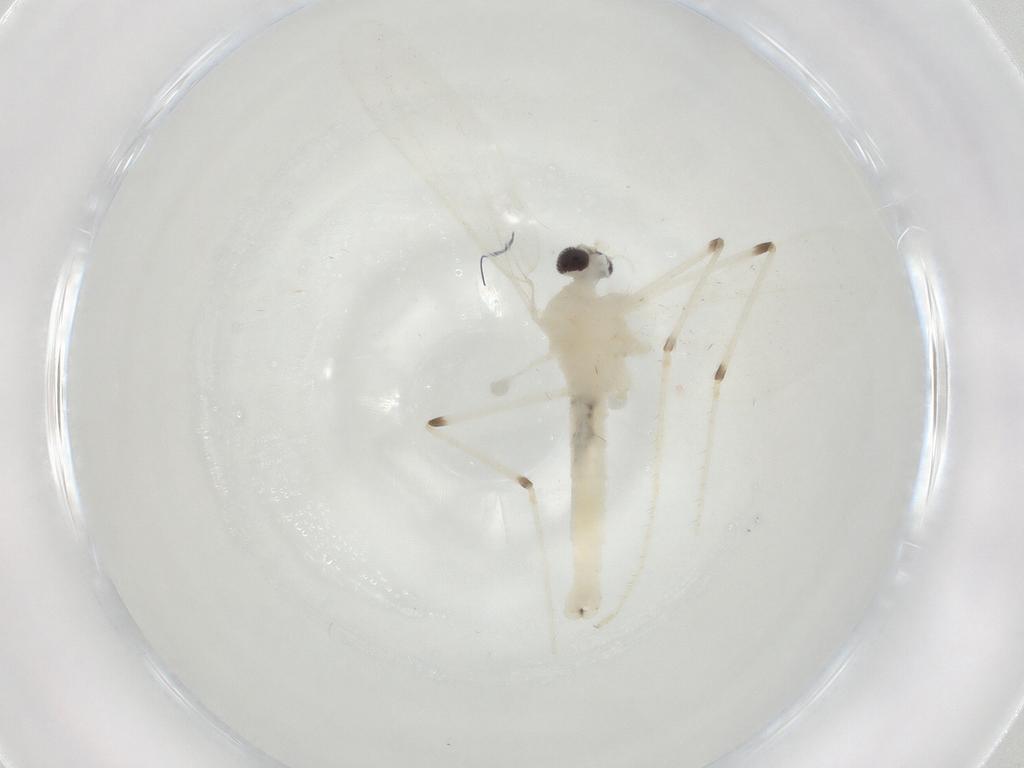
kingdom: Animalia
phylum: Arthropoda
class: Insecta
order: Diptera
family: Cecidomyiidae
